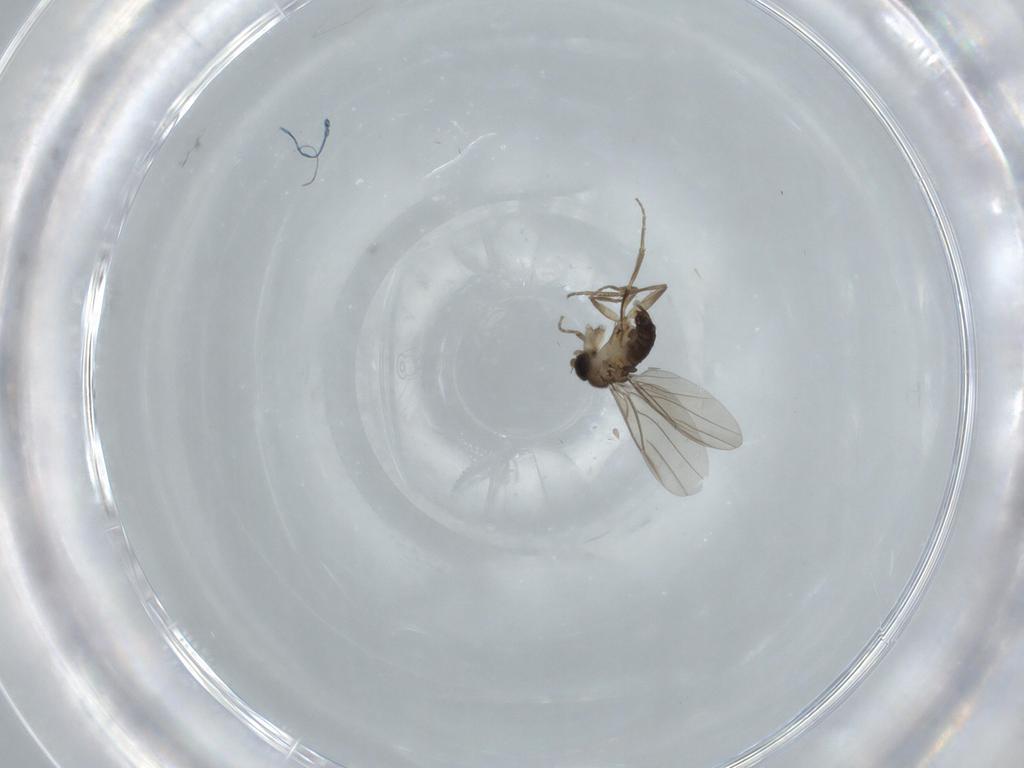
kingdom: Animalia
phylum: Arthropoda
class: Insecta
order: Diptera
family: Phoridae
